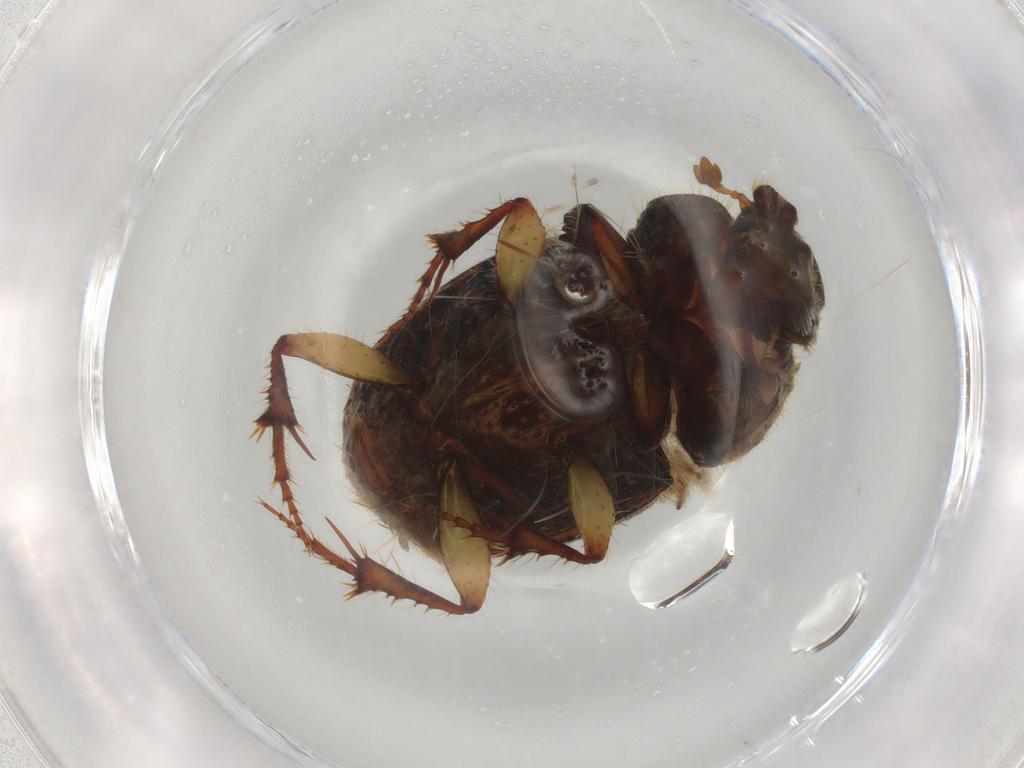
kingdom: Animalia
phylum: Arthropoda
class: Insecta
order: Coleoptera
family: Scarabaeidae
